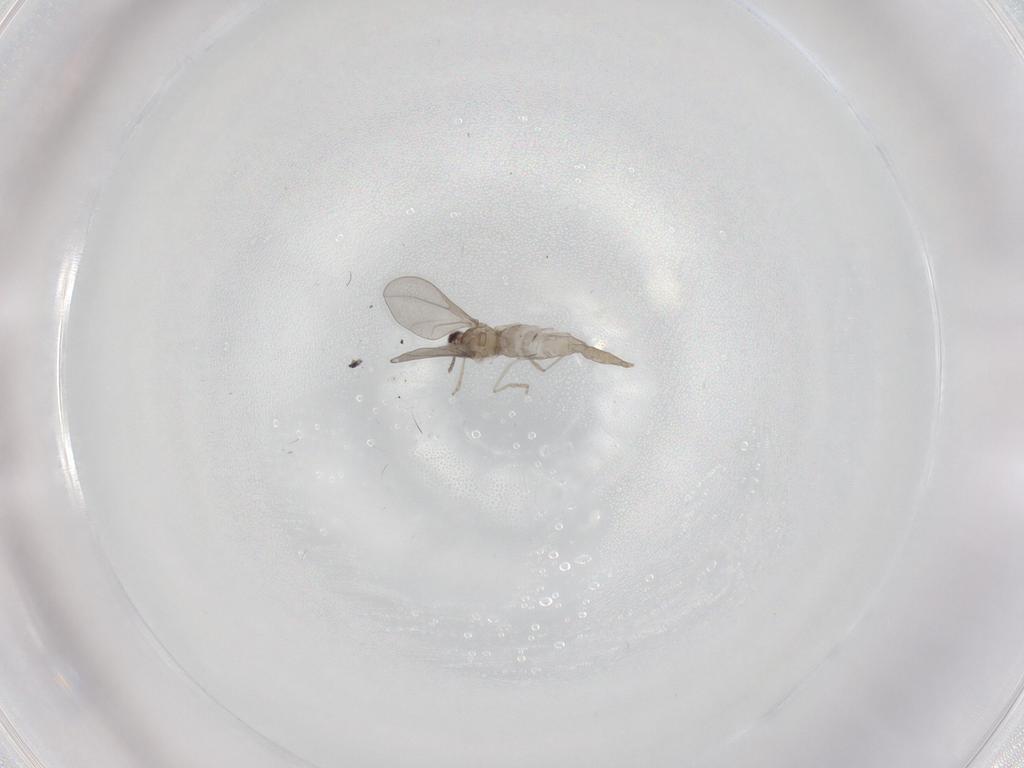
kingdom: Animalia
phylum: Arthropoda
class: Insecta
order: Diptera
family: Cecidomyiidae
